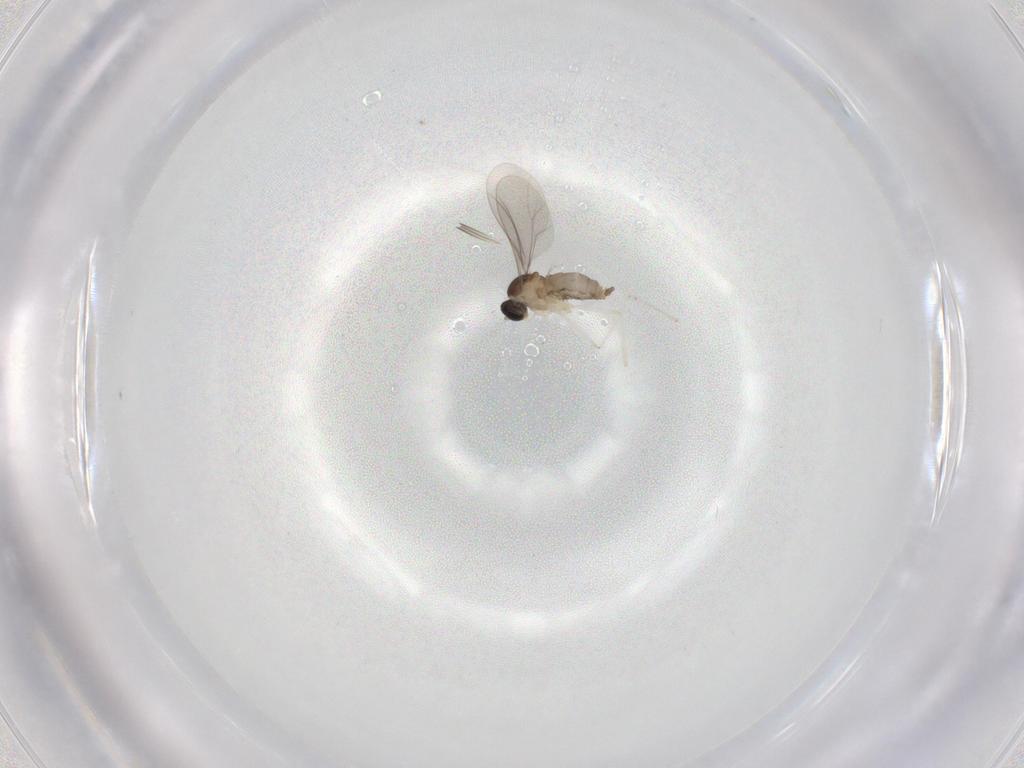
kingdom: Animalia
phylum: Arthropoda
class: Insecta
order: Diptera
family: Cecidomyiidae
